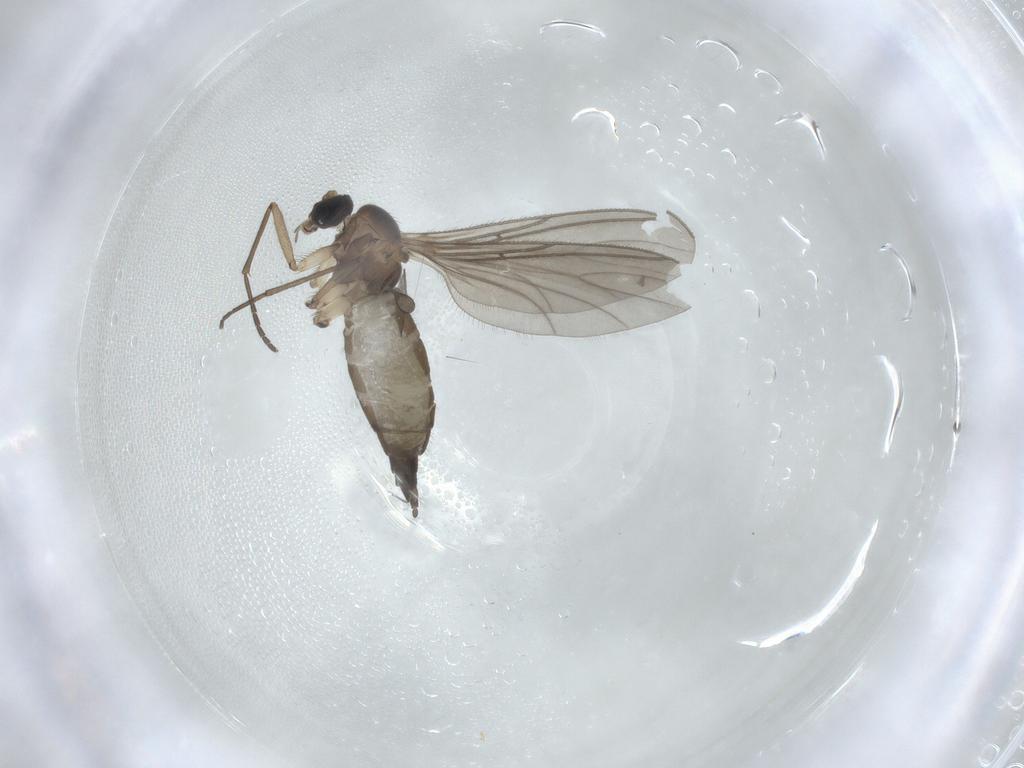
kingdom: Animalia
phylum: Arthropoda
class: Insecta
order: Diptera
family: Sciaridae
